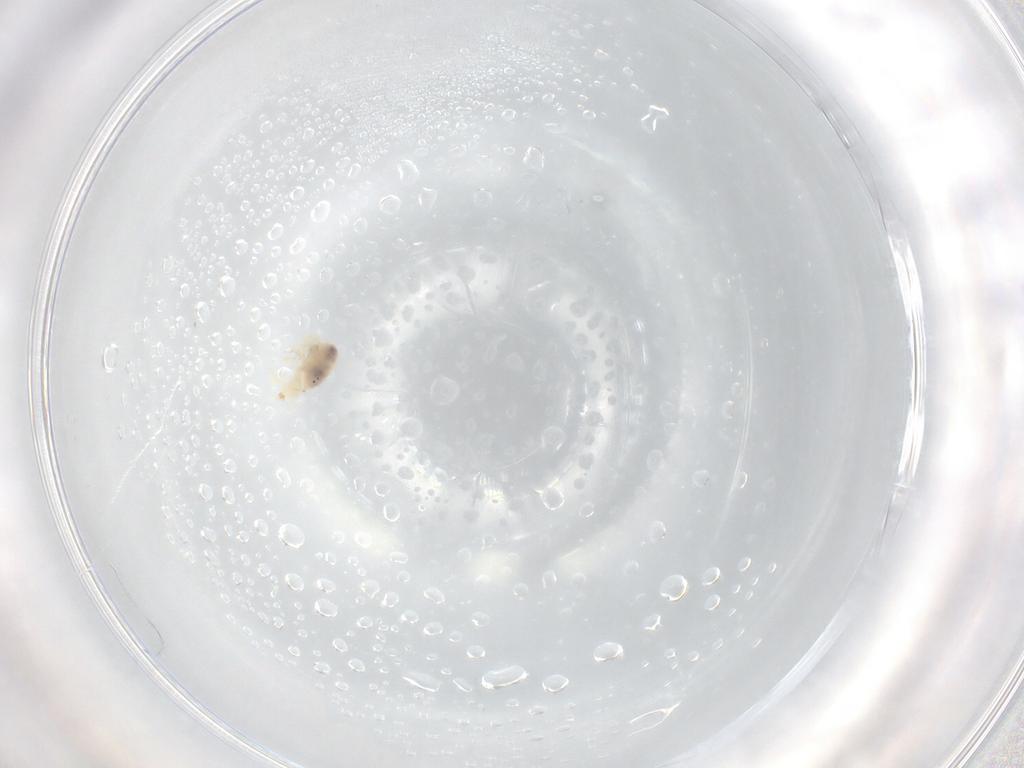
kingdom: Animalia
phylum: Arthropoda
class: Arachnida
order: Trombidiformes
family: Bdellidae
